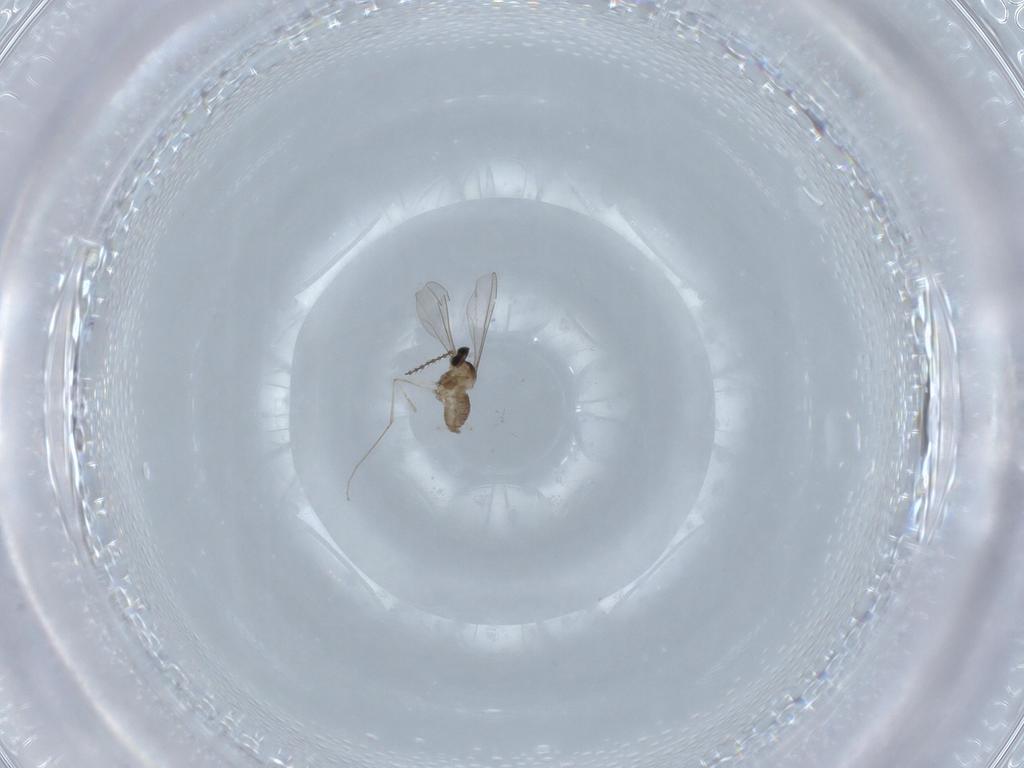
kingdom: Animalia
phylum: Arthropoda
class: Insecta
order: Diptera
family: Cecidomyiidae
